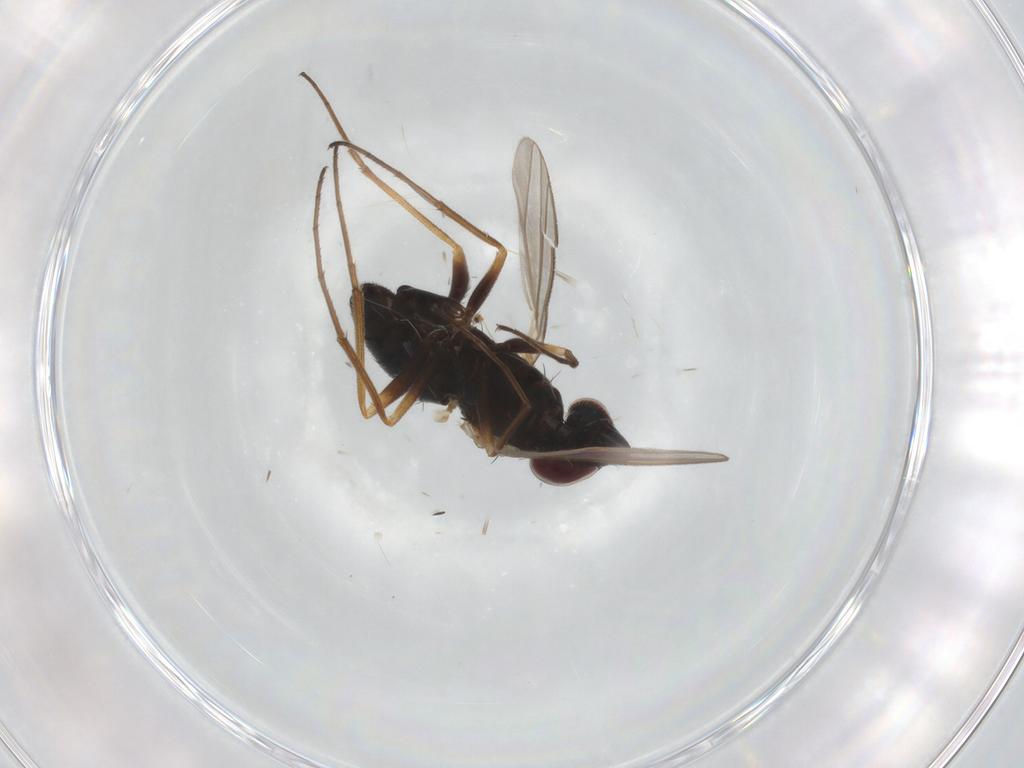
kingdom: Animalia
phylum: Arthropoda
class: Insecta
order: Diptera
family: Dolichopodidae
